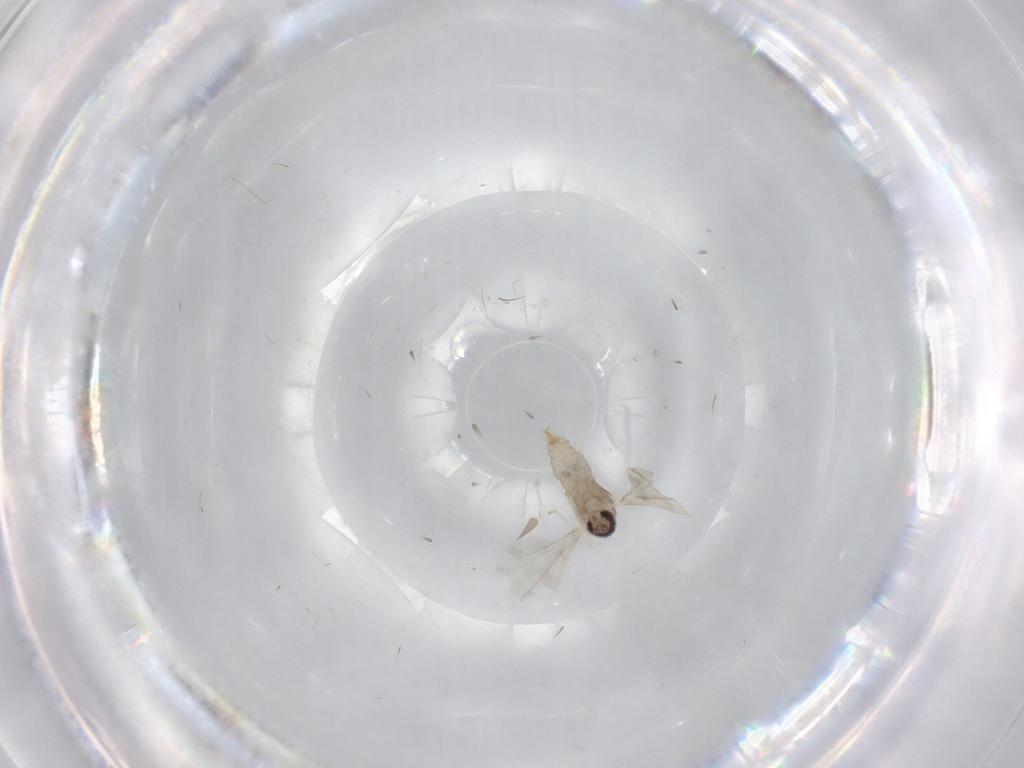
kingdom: Animalia
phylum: Arthropoda
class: Insecta
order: Diptera
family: Cecidomyiidae
